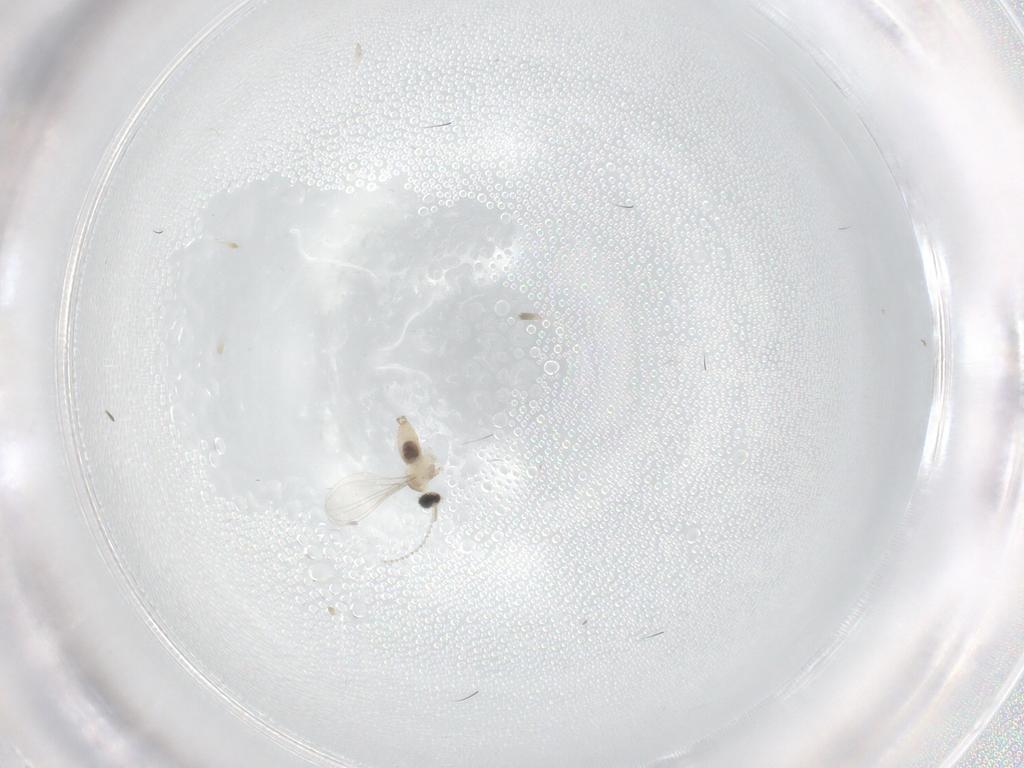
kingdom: Animalia
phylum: Arthropoda
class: Insecta
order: Diptera
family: Cecidomyiidae
